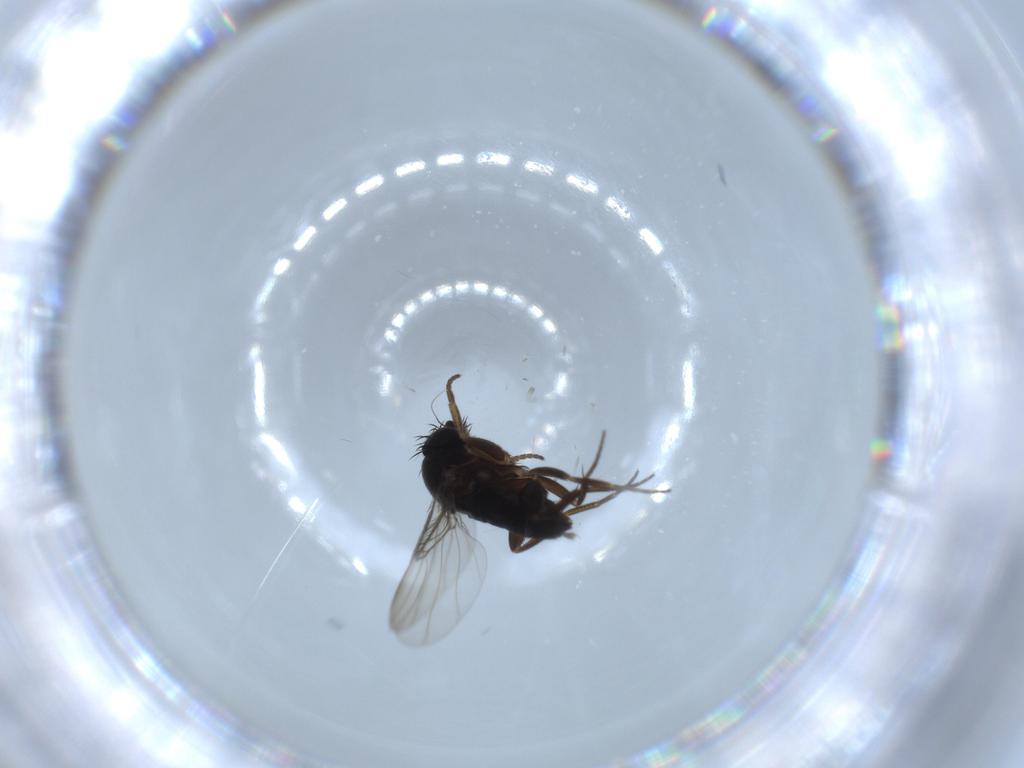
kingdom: Animalia
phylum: Arthropoda
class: Insecta
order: Diptera
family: Phoridae
